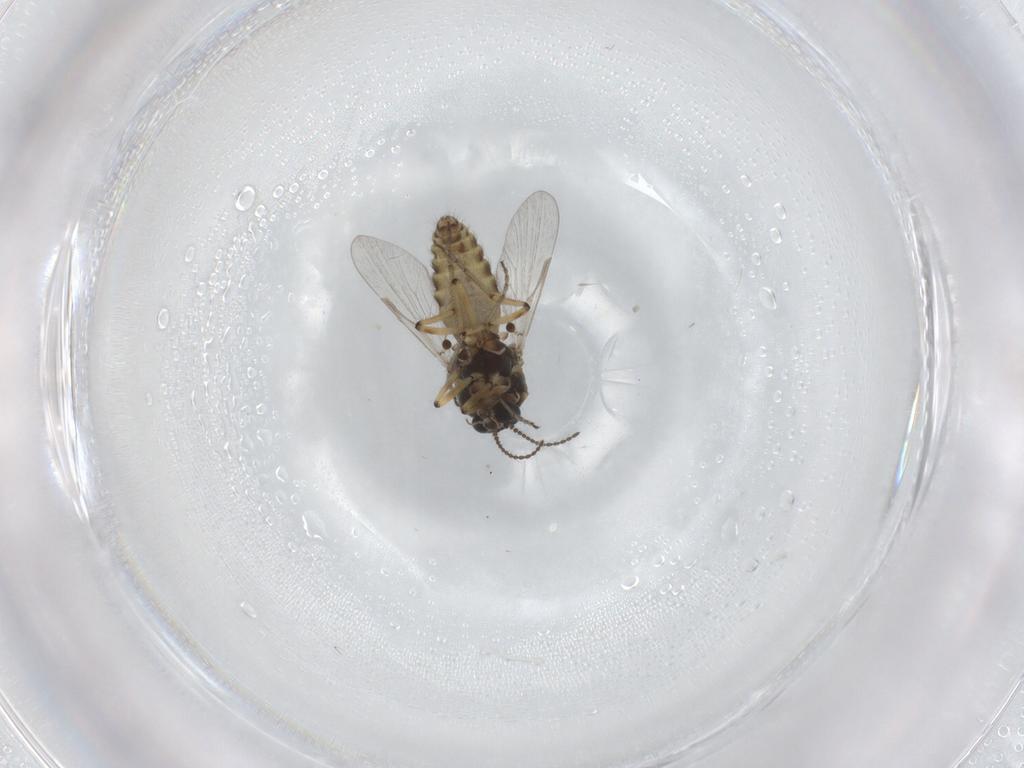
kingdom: Animalia
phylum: Arthropoda
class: Insecta
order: Diptera
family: Ceratopogonidae
